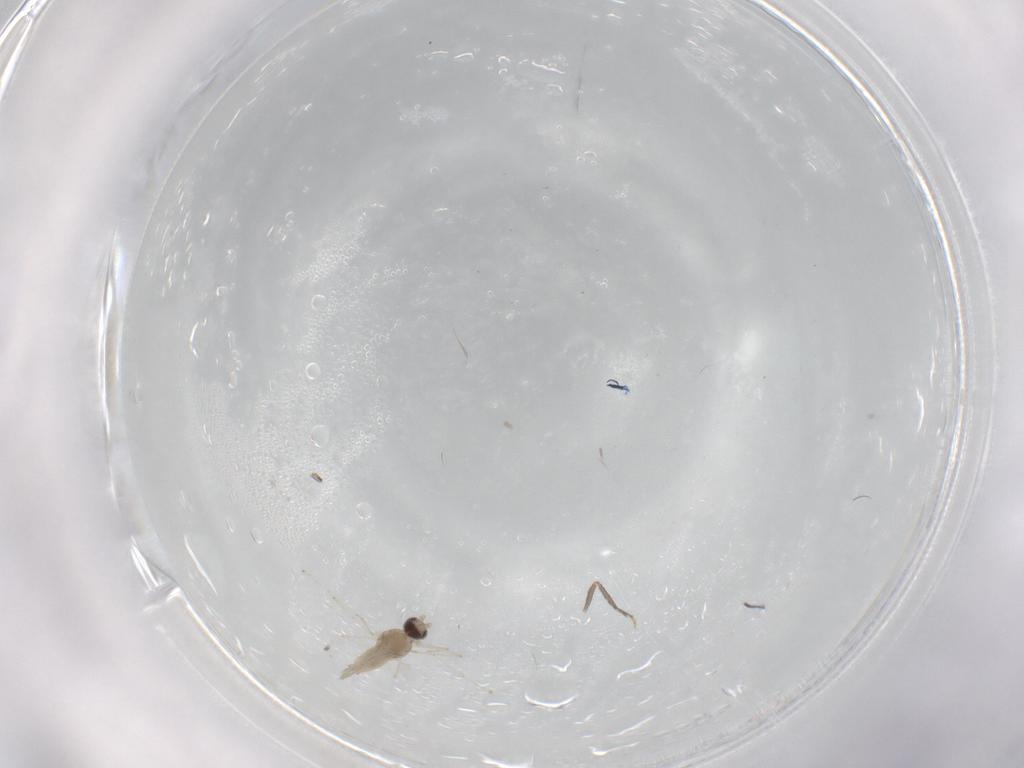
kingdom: Animalia
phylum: Arthropoda
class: Insecta
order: Diptera
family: Cecidomyiidae
